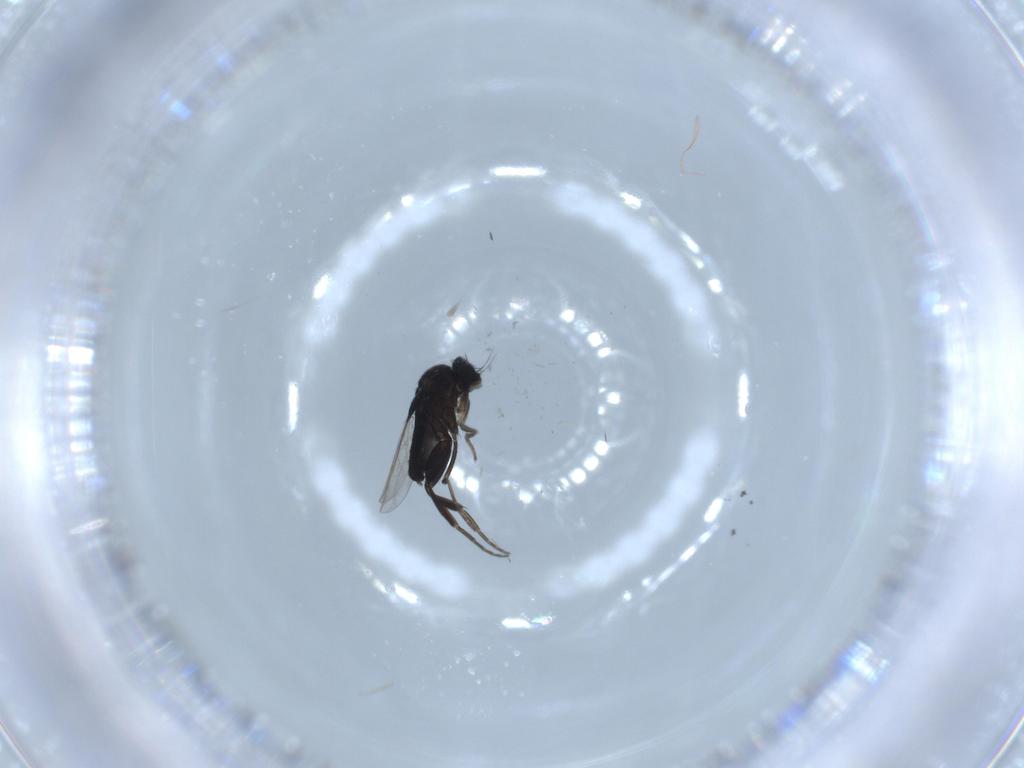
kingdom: Animalia
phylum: Arthropoda
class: Insecta
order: Diptera
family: Phoridae
